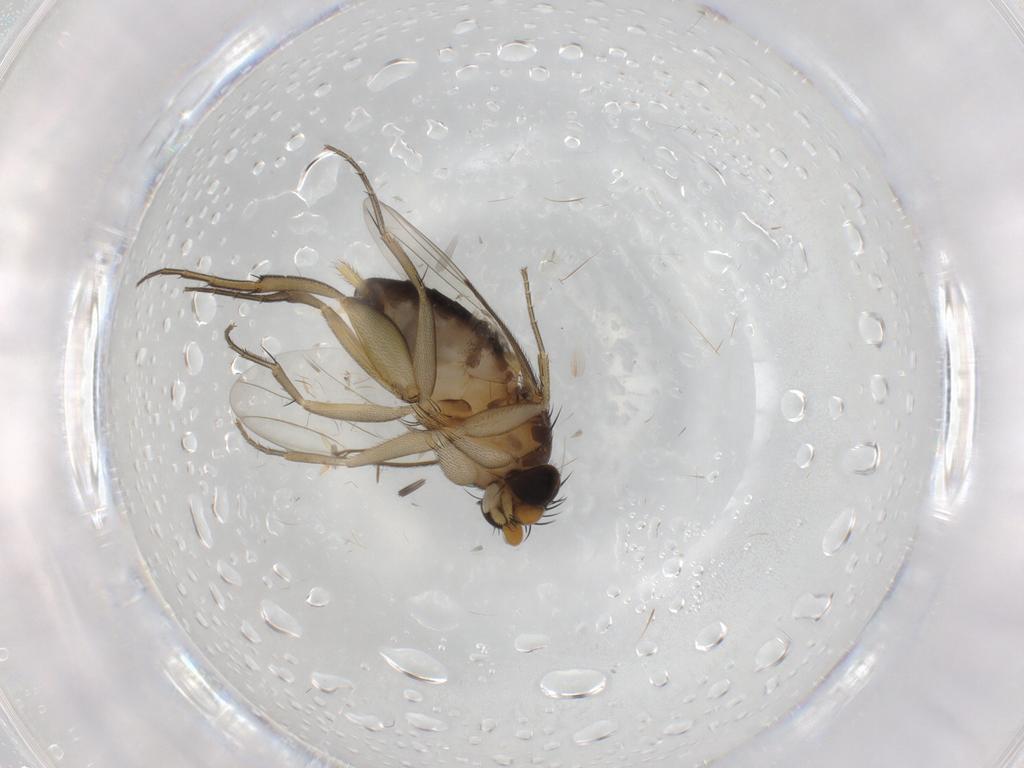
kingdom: Animalia
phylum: Arthropoda
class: Insecta
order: Diptera
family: Phoridae
